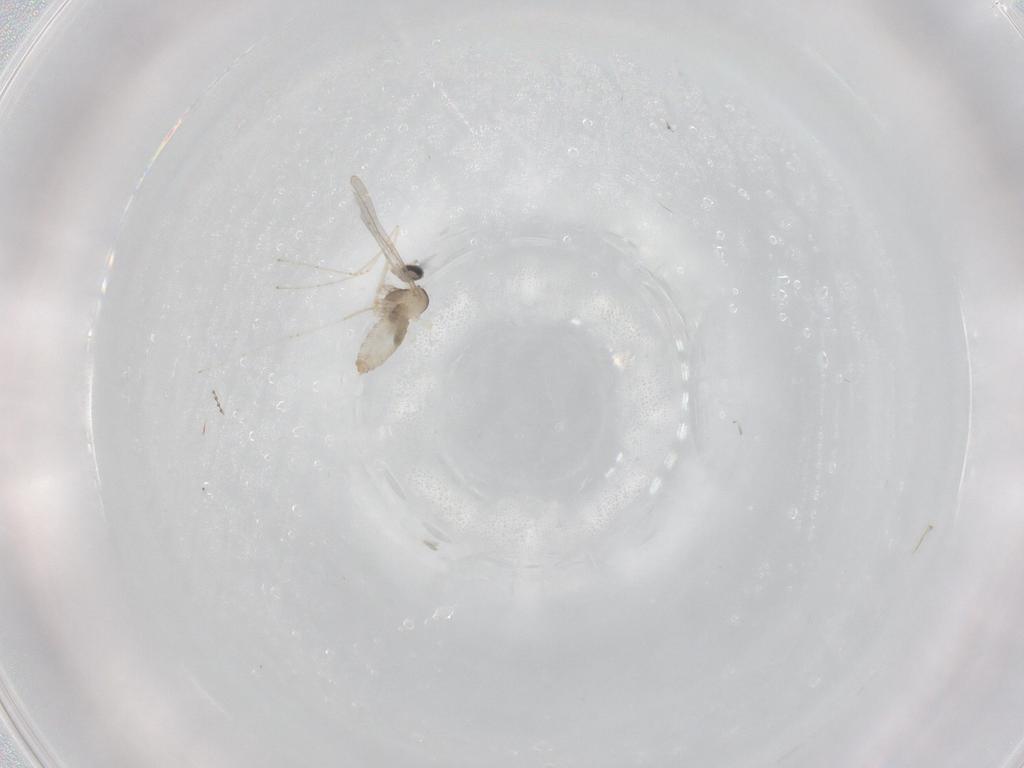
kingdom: Animalia
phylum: Arthropoda
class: Insecta
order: Diptera
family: Cecidomyiidae
